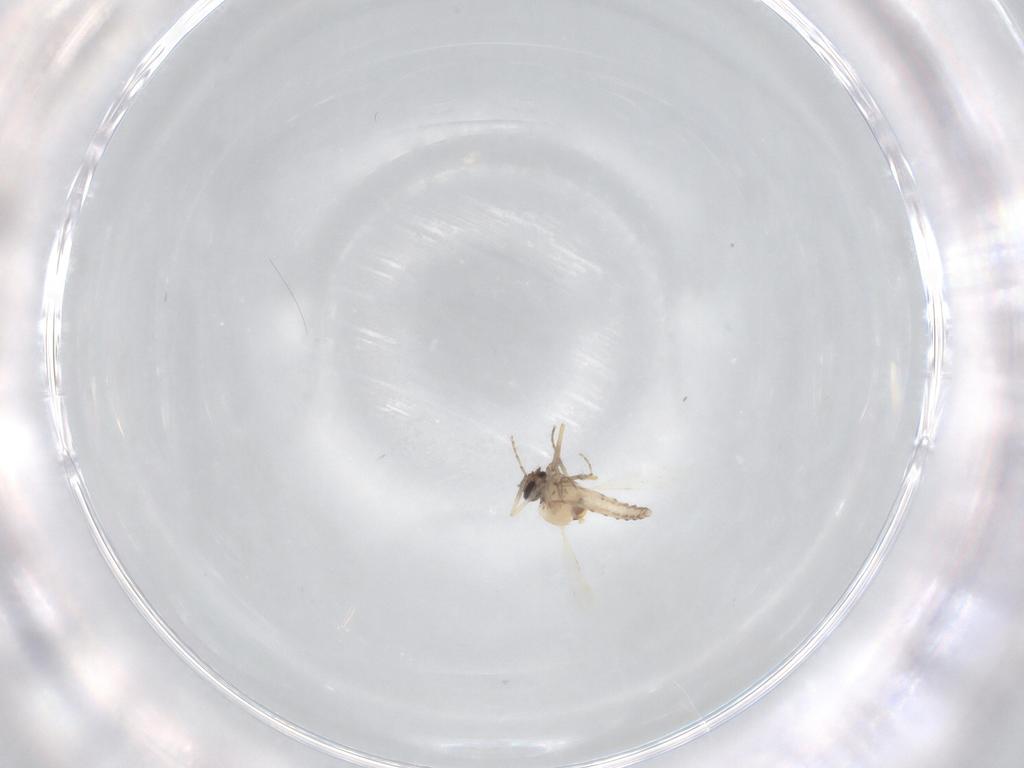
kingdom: Animalia
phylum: Arthropoda
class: Insecta
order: Diptera
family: Ceratopogonidae
